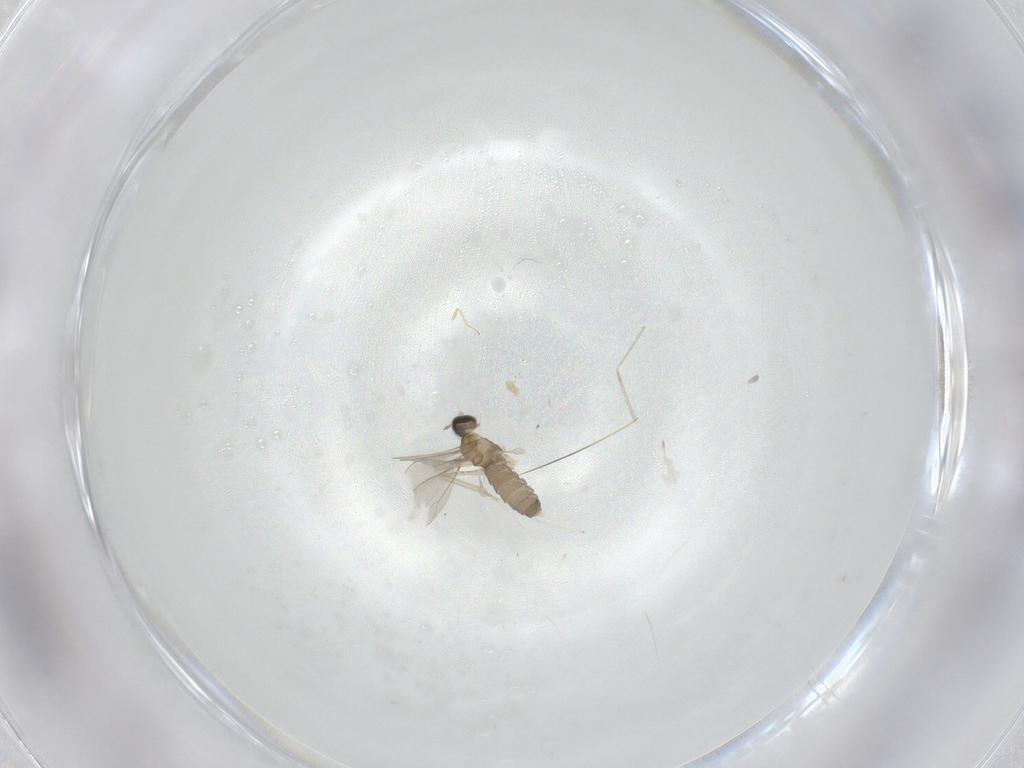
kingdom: Animalia
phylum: Arthropoda
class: Insecta
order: Diptera
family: Cecidomyiidae
